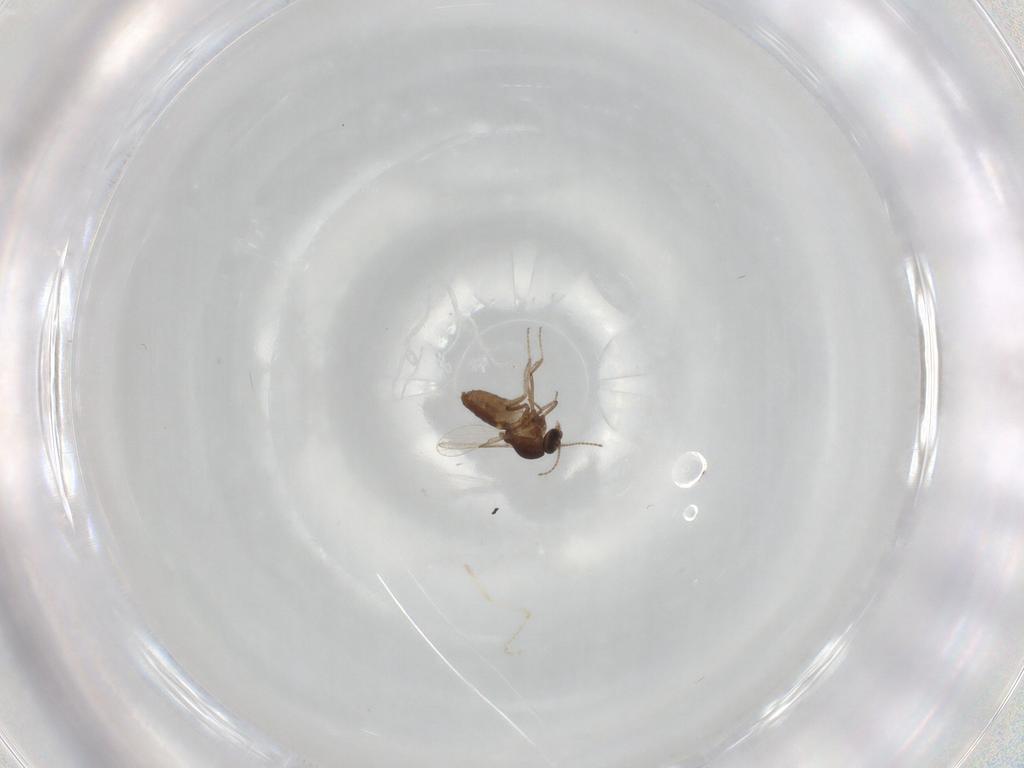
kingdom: Animalia
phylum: Arthropoda
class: Insecta
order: Diptera
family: Ceratopogonidae
